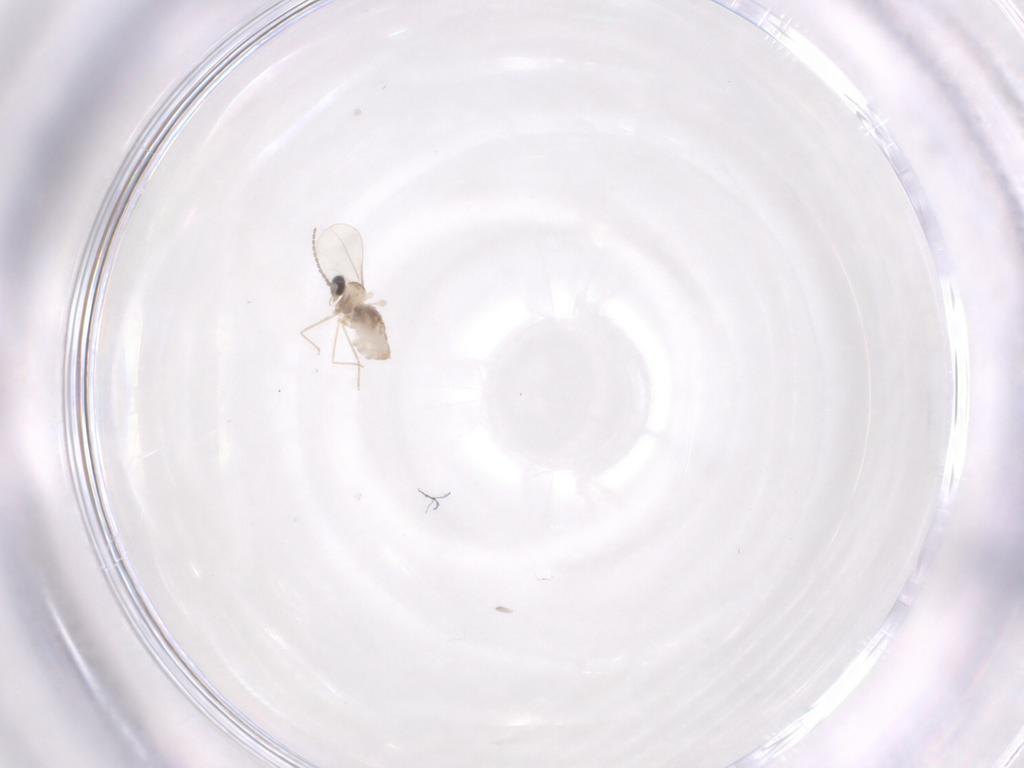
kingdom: Animalia
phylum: Arthropoda
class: Insecta
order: Diptera
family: Cecidomyiidae
